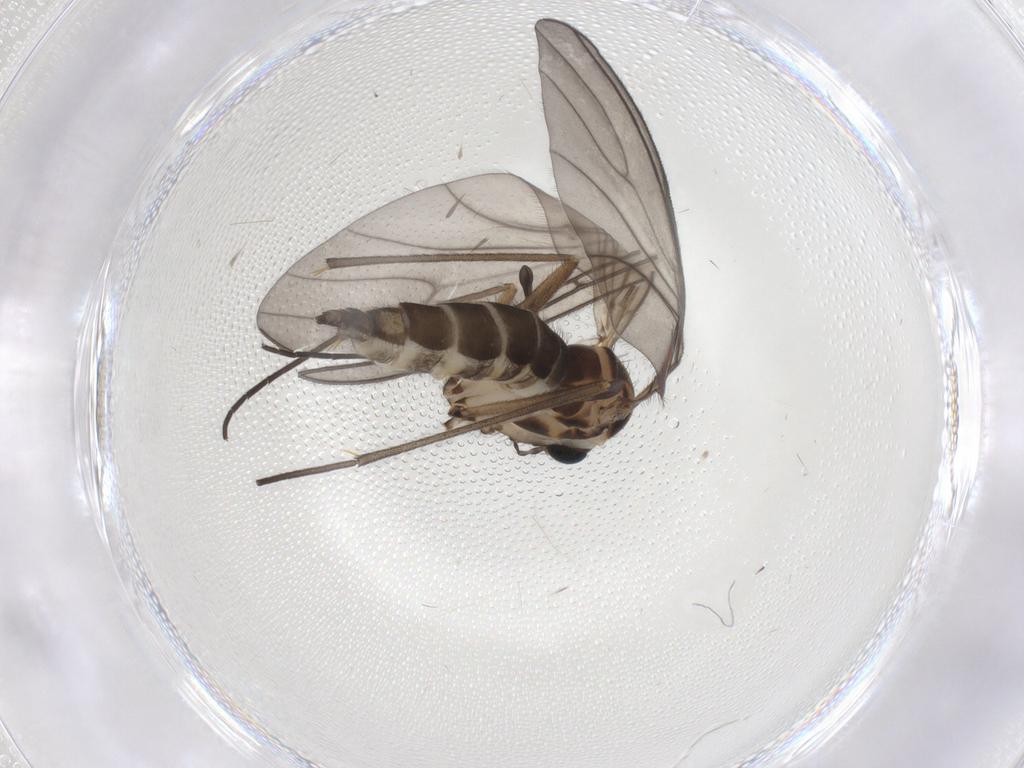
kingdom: Animalia
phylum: Arthropoda
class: Insecta
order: Diptera
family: Sciaridae
